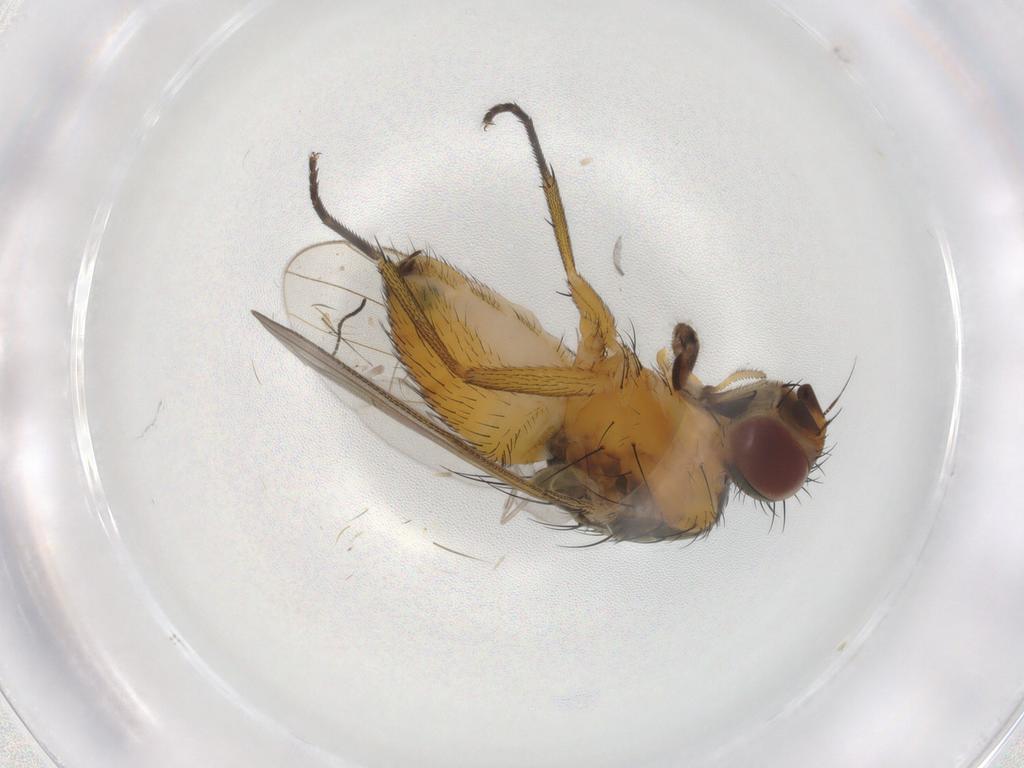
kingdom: Animalia
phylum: Arthropoda
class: Insecta
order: Diptera
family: Muscidae
